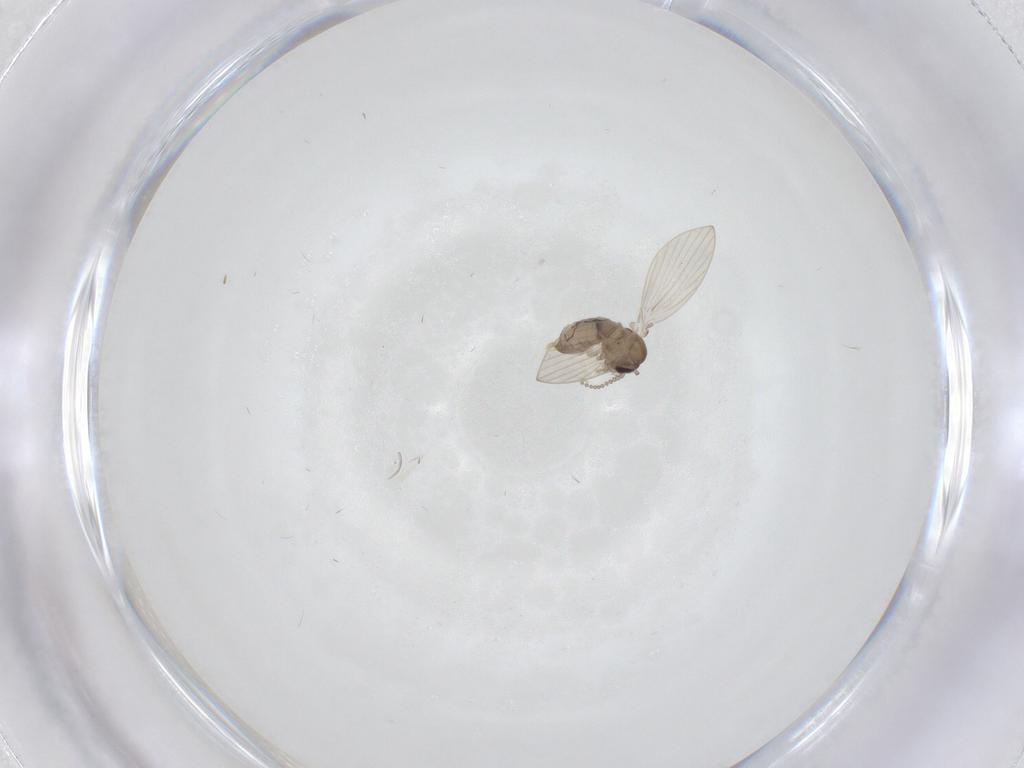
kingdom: Animalia
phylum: Arthropoda
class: Insecta
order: Diptera
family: Psychodidae
